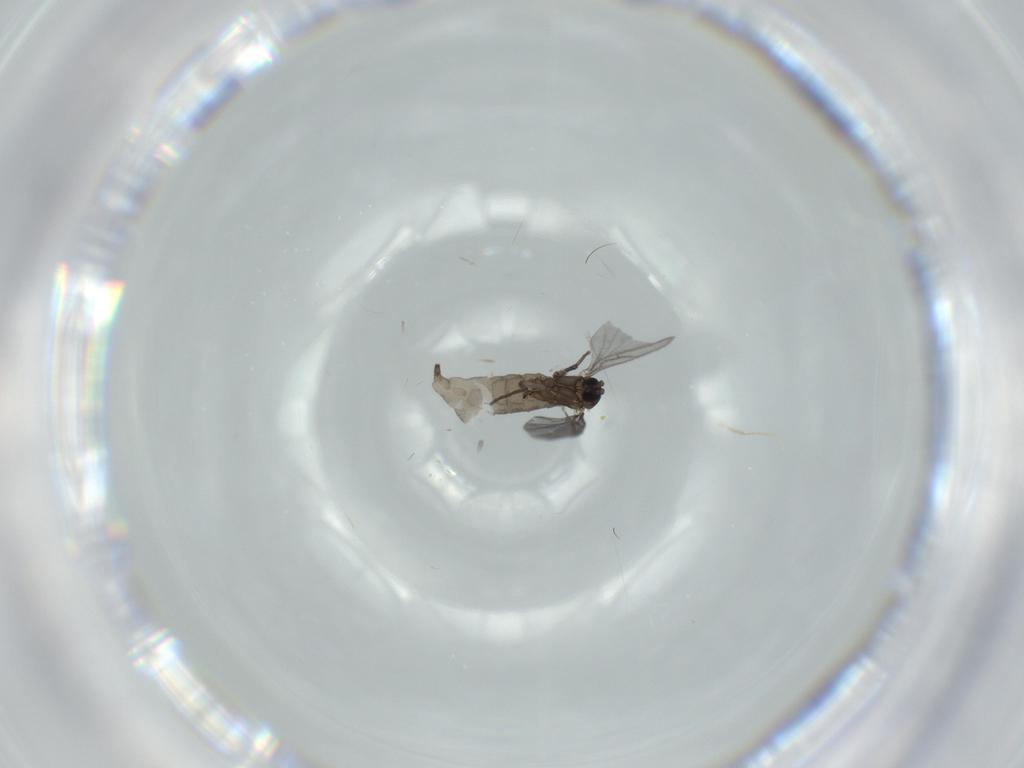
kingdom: Animalia
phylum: Arthropoda
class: Insecta
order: Diptera
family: Sciaridae
